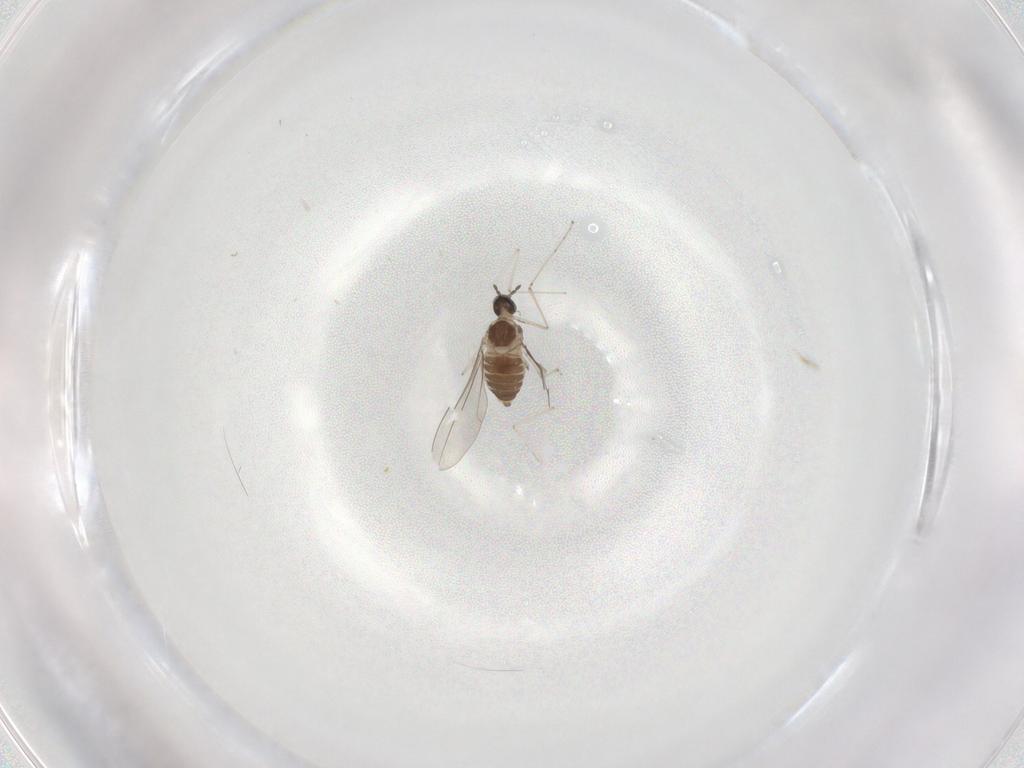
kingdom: Animalia
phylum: Arthropoda
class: Insecta
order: Diptera
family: Cecidomyiidae
